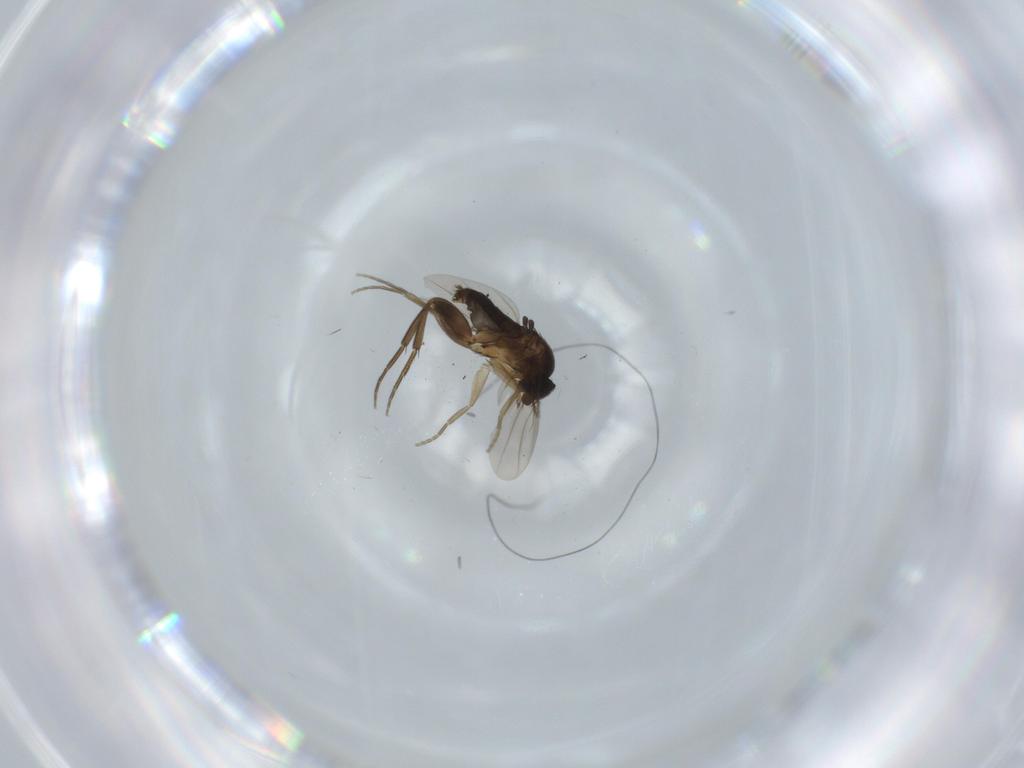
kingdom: Animalia
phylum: Arthropoda
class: Insecta
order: Diptera
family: Phoridae
